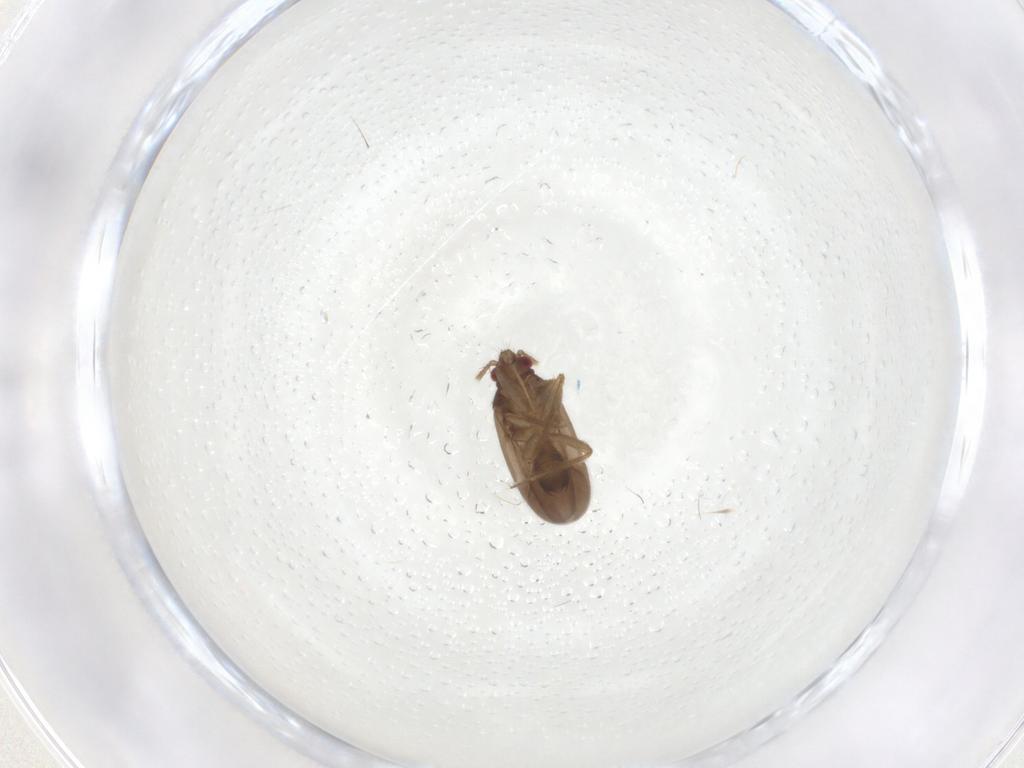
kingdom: Animalia
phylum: Arthropoda
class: Insecta
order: Hemiptera
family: Ceratocombidae
